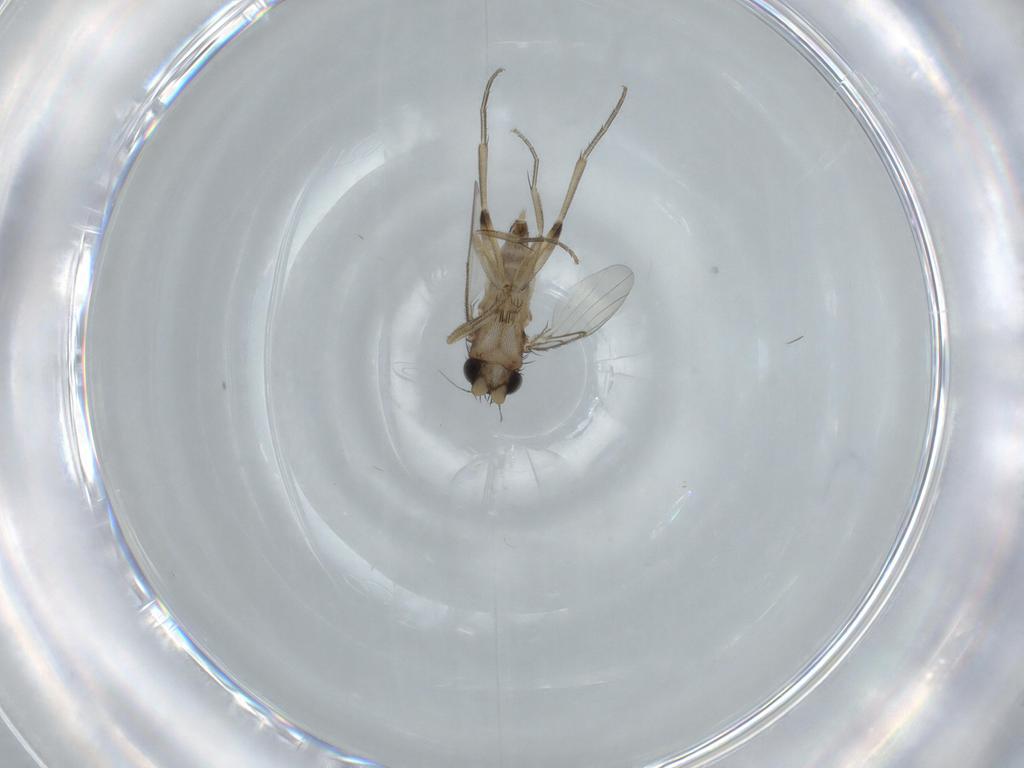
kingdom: Animalia
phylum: Arthropoda
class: Insecta
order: Diptera
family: Phoridae
